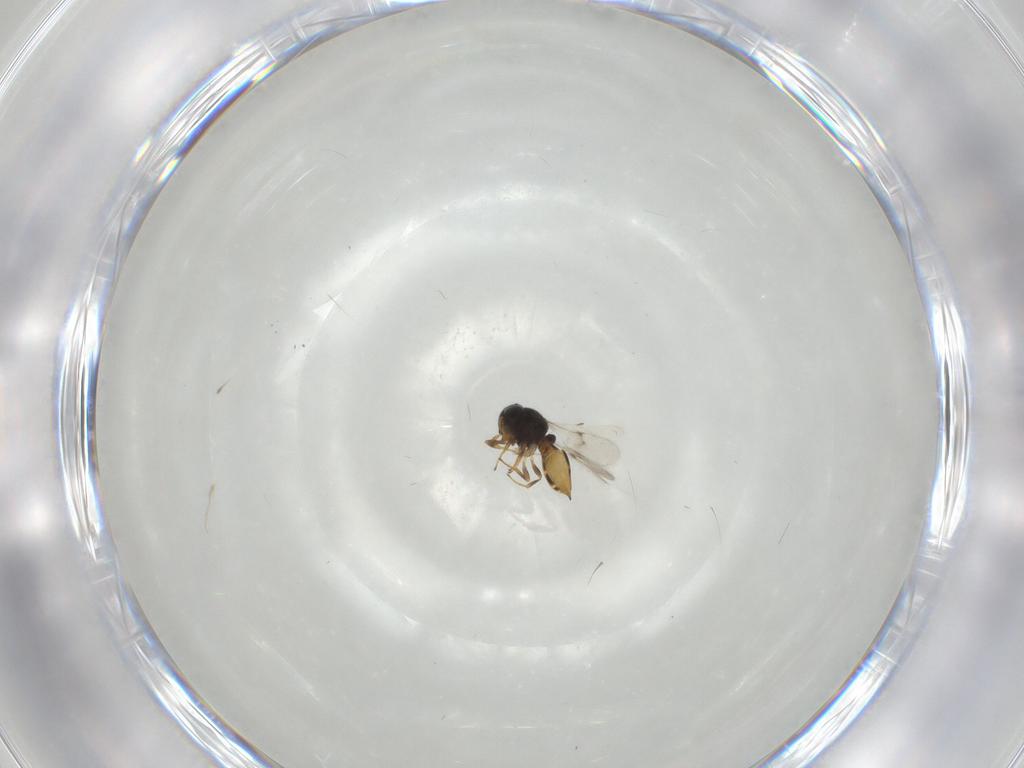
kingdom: Animalia
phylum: Arthropoda
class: Insecta
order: Hymenoptera
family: Scelionidae
